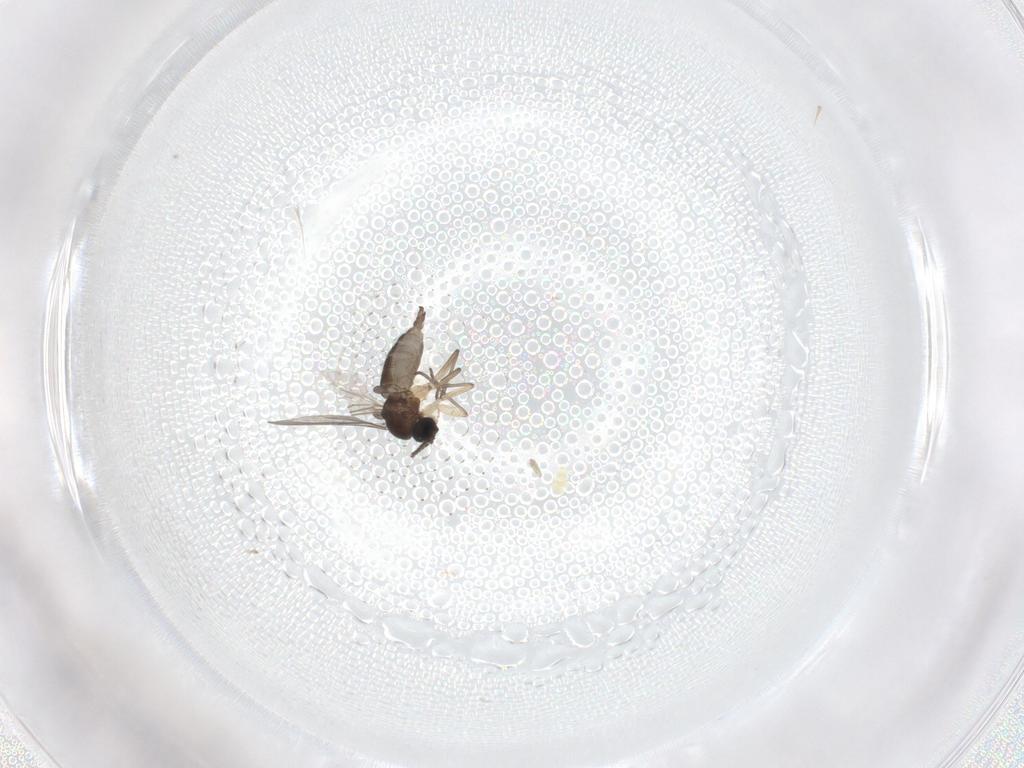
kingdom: Animalia
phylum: Arthropoda
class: Insecta
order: Diptera
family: Sciaridae
